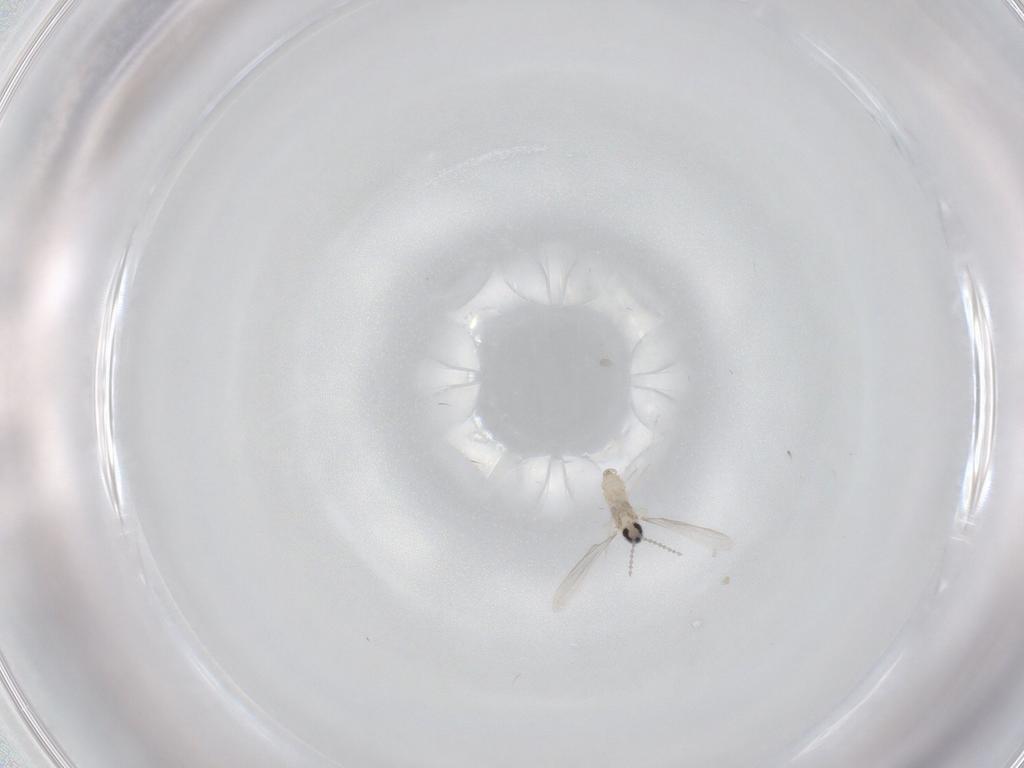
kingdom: Animalia
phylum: Arthropoda
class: Insecta
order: Diptera
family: Cecidomyiidae
